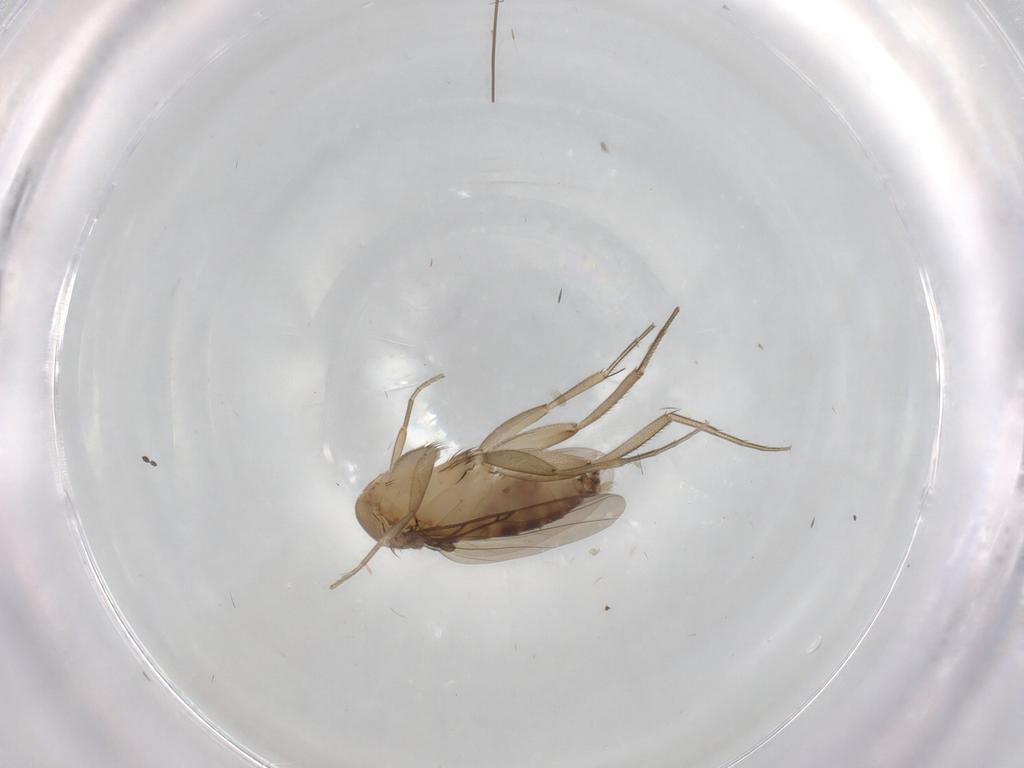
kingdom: Animalia
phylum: Arthropoda
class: Insecta
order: Diptera
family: Phoridae
